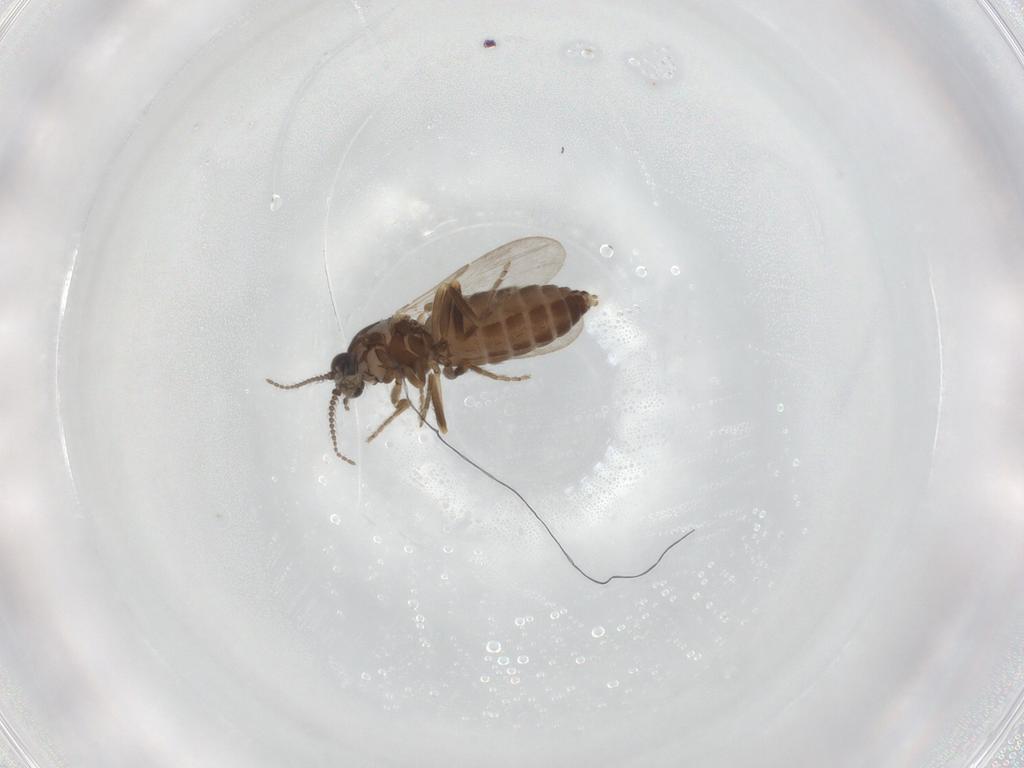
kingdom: Animalia
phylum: Arthropoda
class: Insecta
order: Diptera
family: Ceratopogonidae
